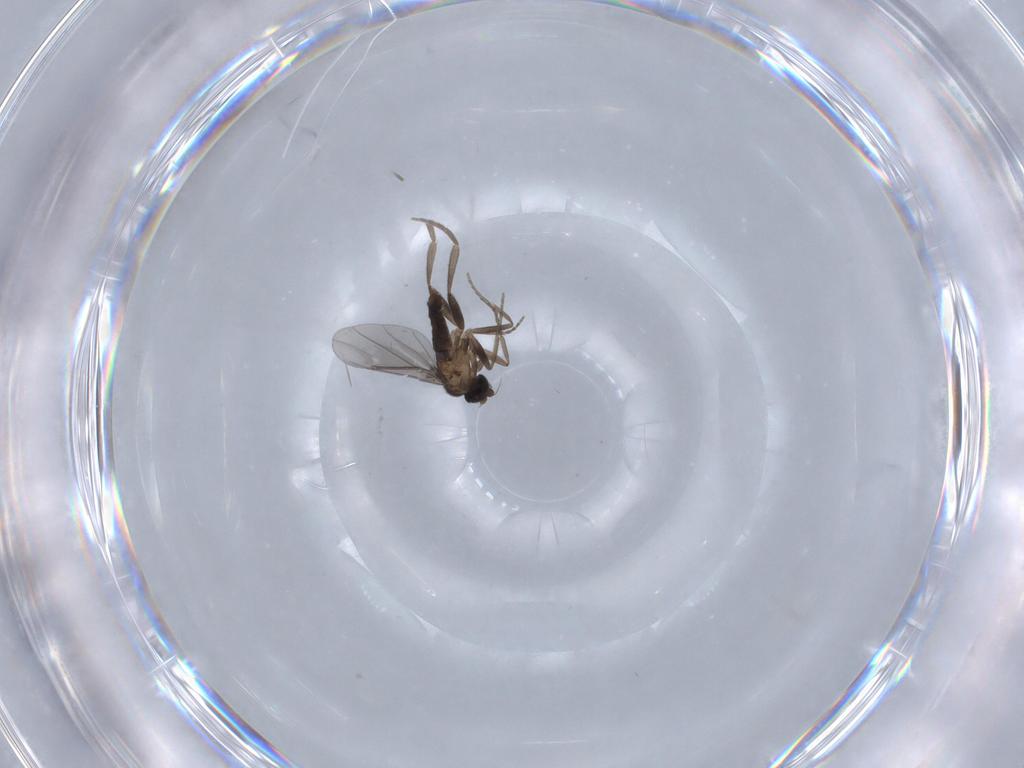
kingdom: Animalia
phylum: Arthropoda
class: Insecta
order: Diptera
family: Phoridae
